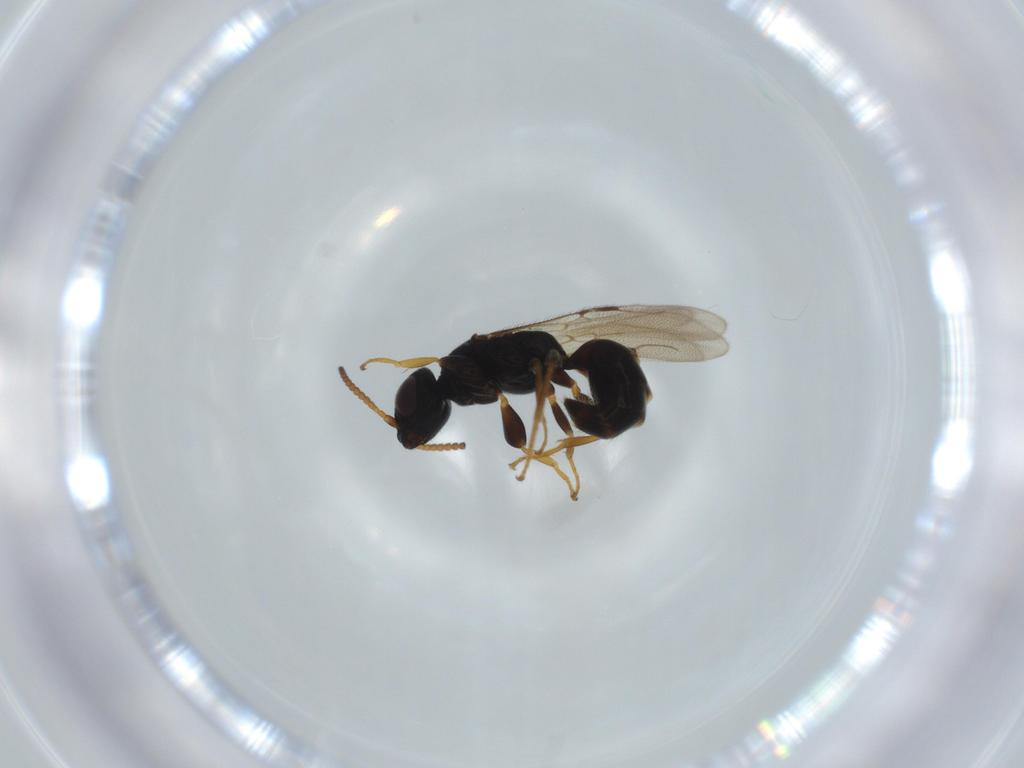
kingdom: Animalia
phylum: Arthropoda
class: Insecta
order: Hymenoptera
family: Bethylidae
